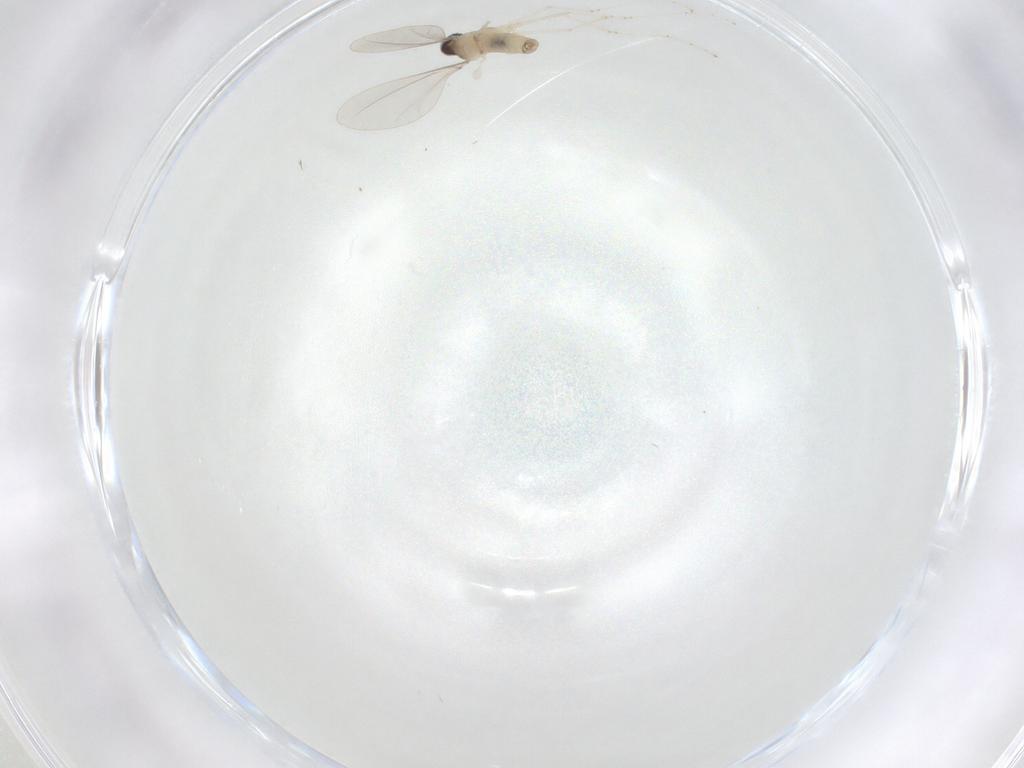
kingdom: Animalia
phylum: Arthropoda
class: Insecta
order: Diptera
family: Cecidomyiidae
